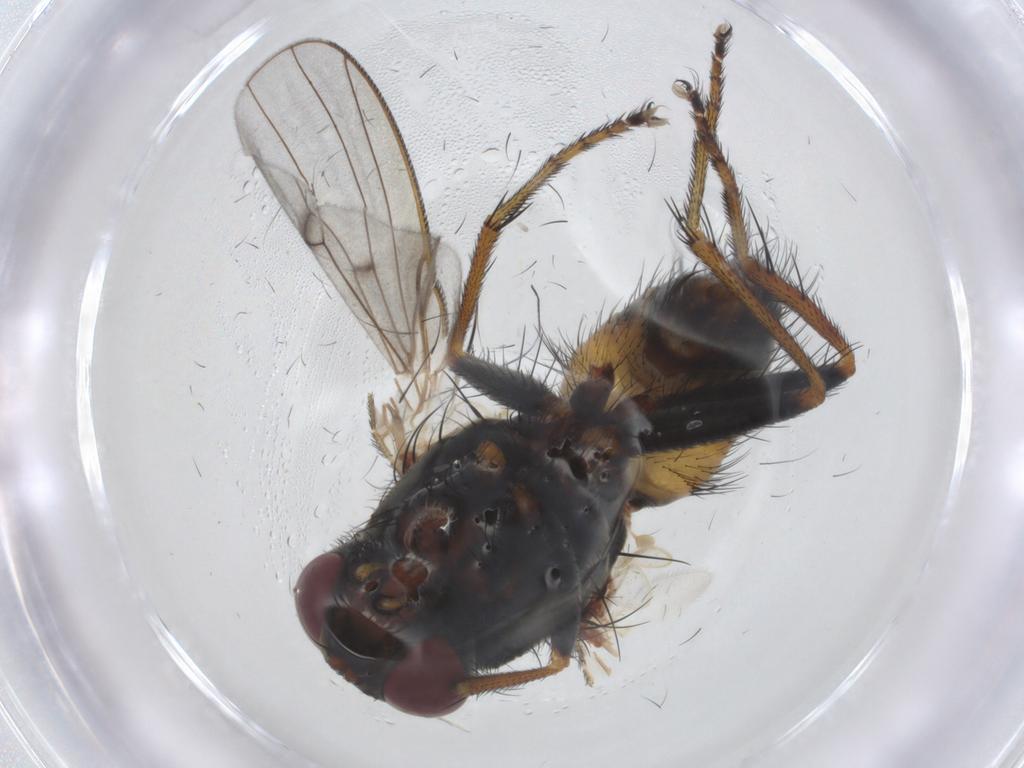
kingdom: Animalia
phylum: Arthropoda
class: Insecta
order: Diptera
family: Muscidae
